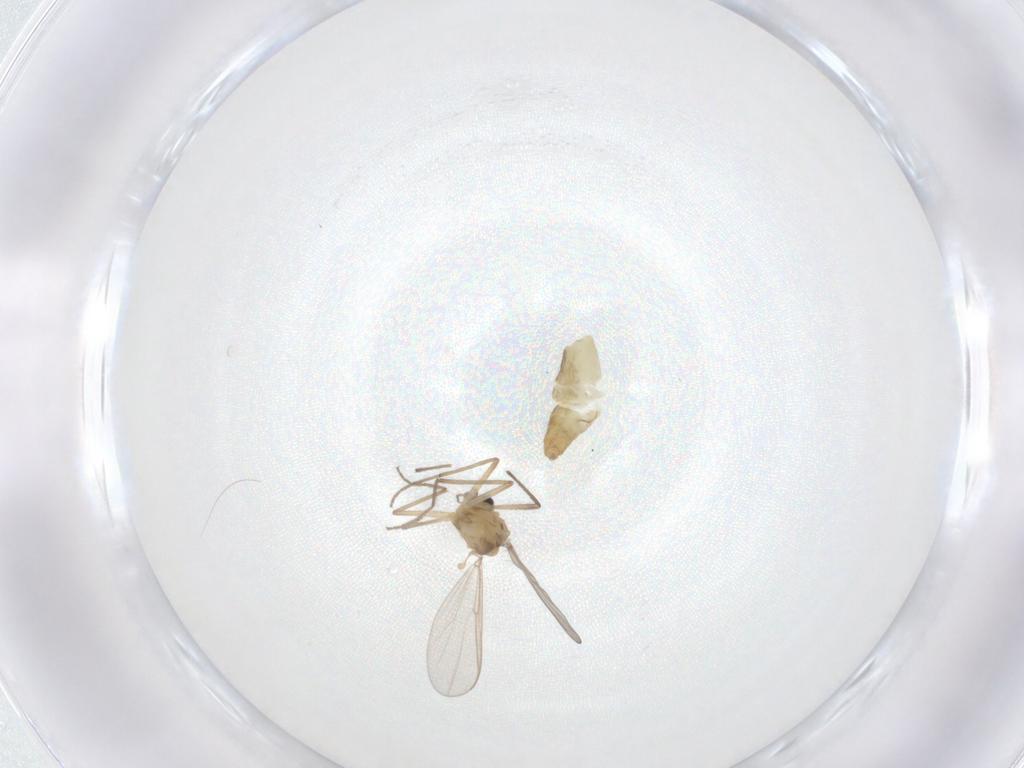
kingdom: Animalia
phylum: Arthropoda
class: Insecta
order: Diptera
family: Chironomidae
